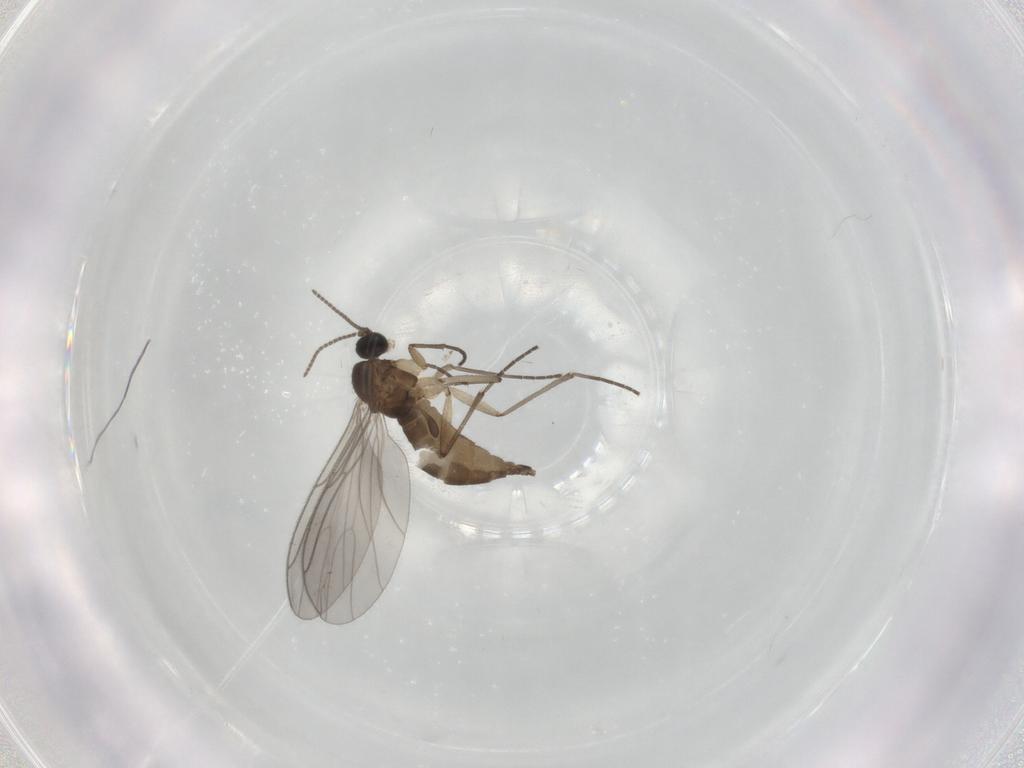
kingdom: Animalia
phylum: Arthropoda
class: Insecta
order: Diptera
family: Sciaridae
